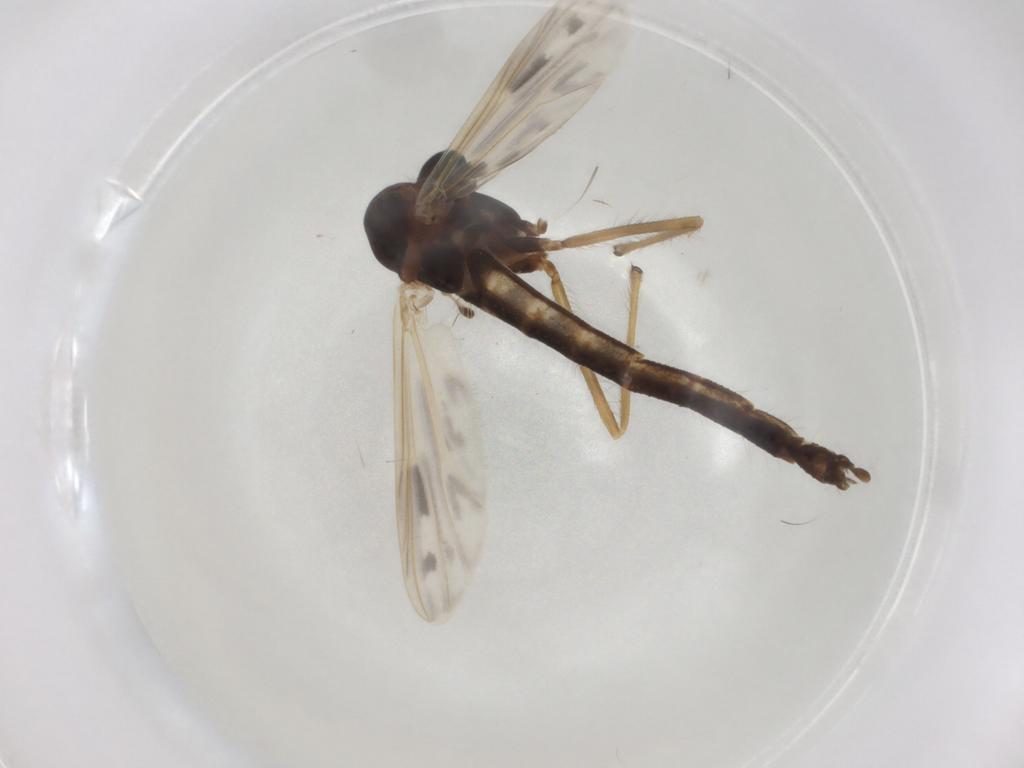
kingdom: Animalia
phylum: Arthropoda
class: Insecta
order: Diptera
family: Chironomidae
